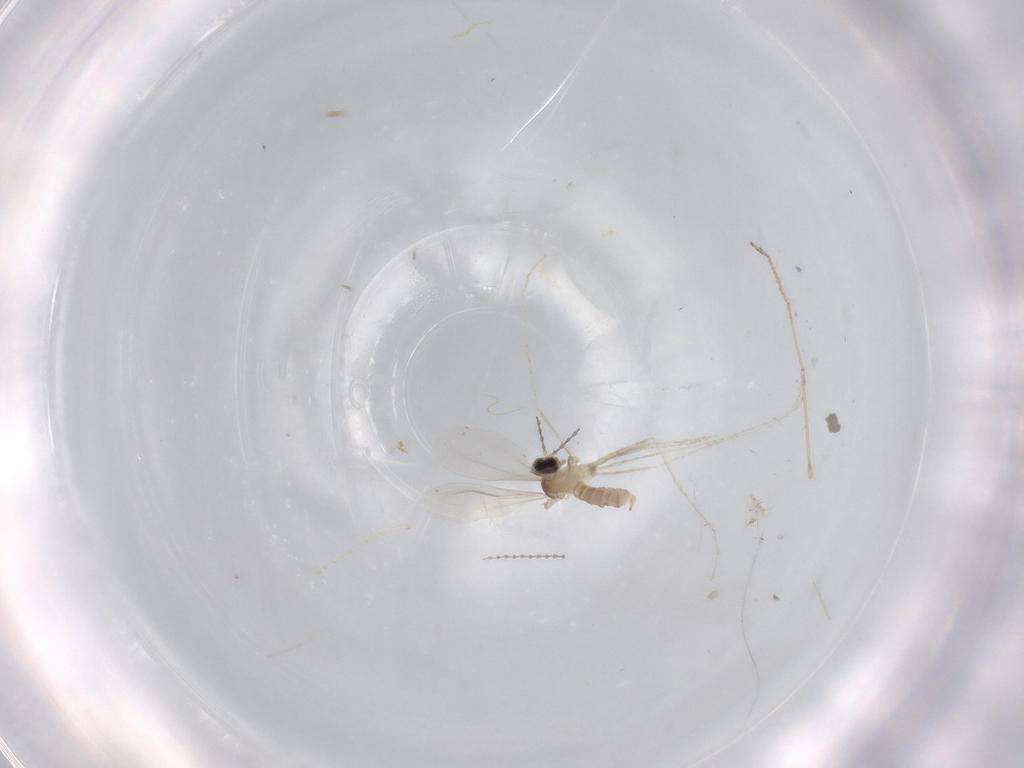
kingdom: Animalia
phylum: Arthropoda
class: Insecta
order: Diptera
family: Cecidomyiidae
